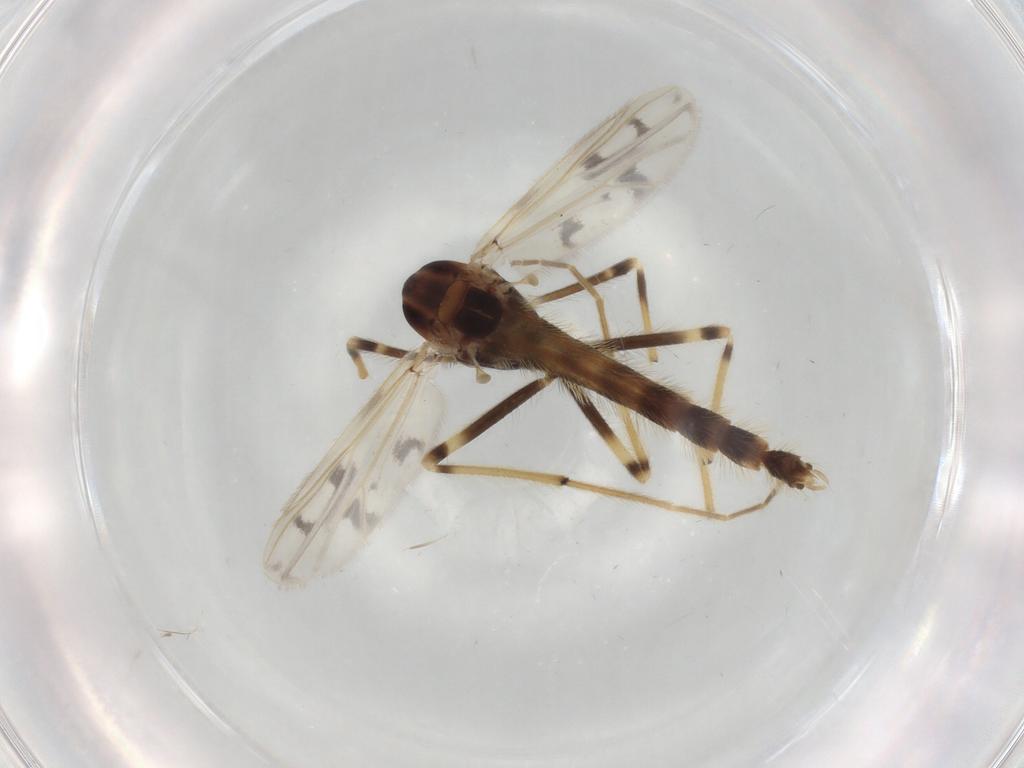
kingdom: Animalia
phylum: Arthropoda
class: Insecta
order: Diptera
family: Chironomidae
